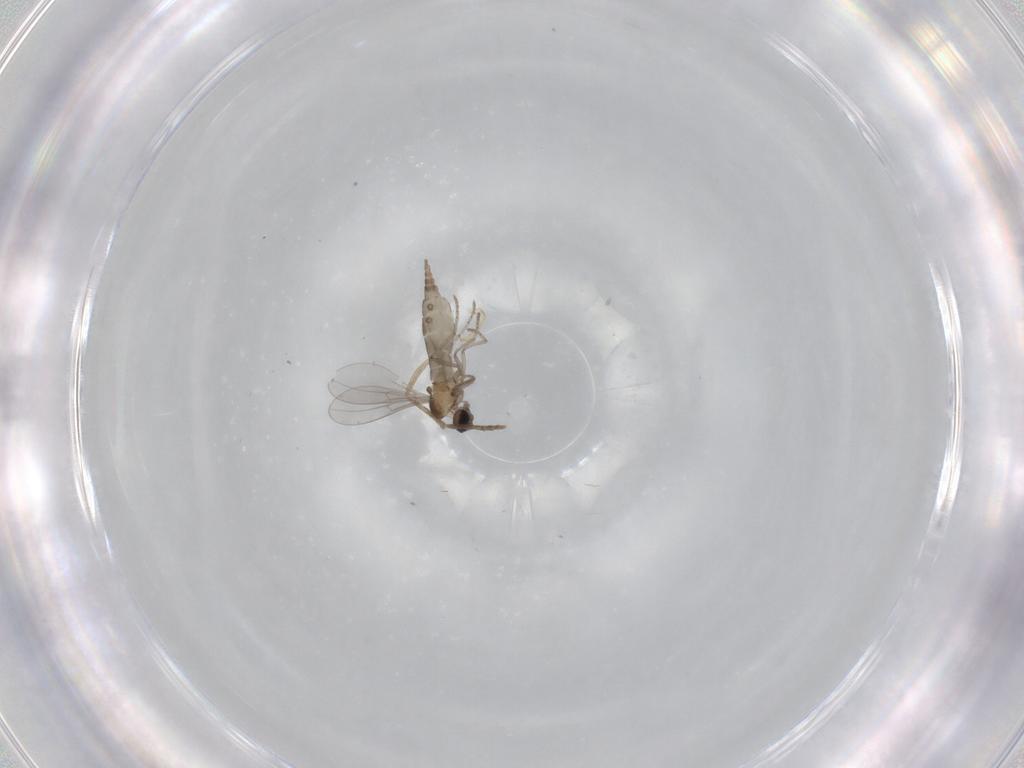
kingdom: Animalia
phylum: Arthropoda
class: Insecta
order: Diptera
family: Cecidomyiidae
